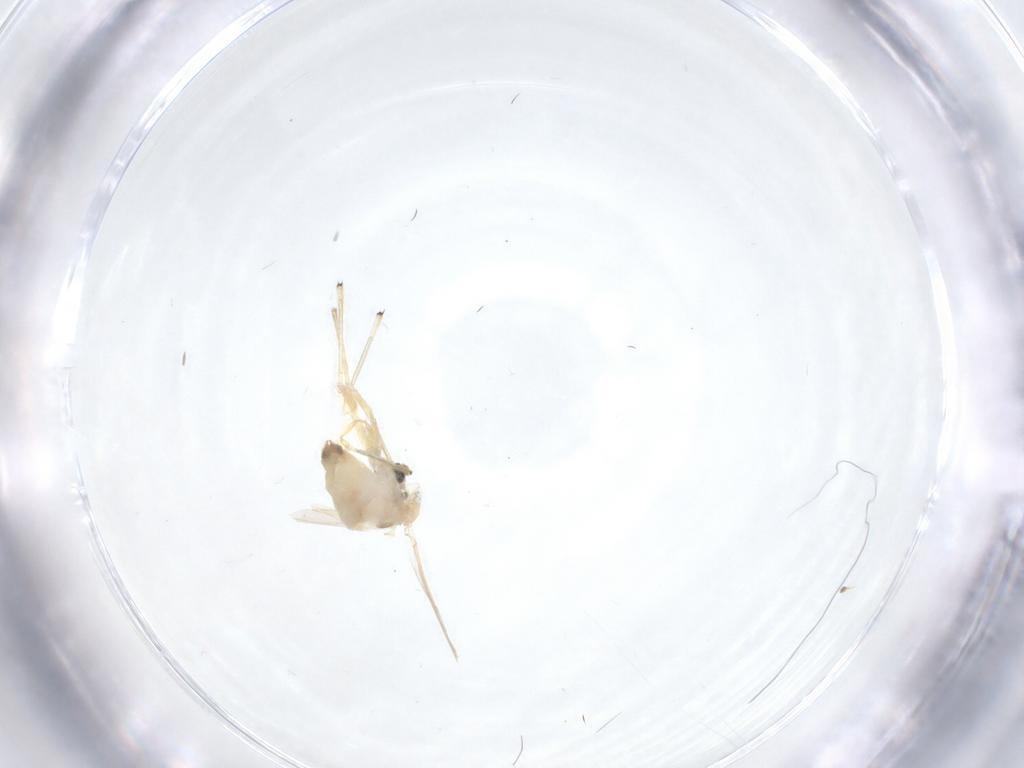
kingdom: Animalia
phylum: Arthropoda
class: Insecta
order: Diptera
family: Chironomidae
